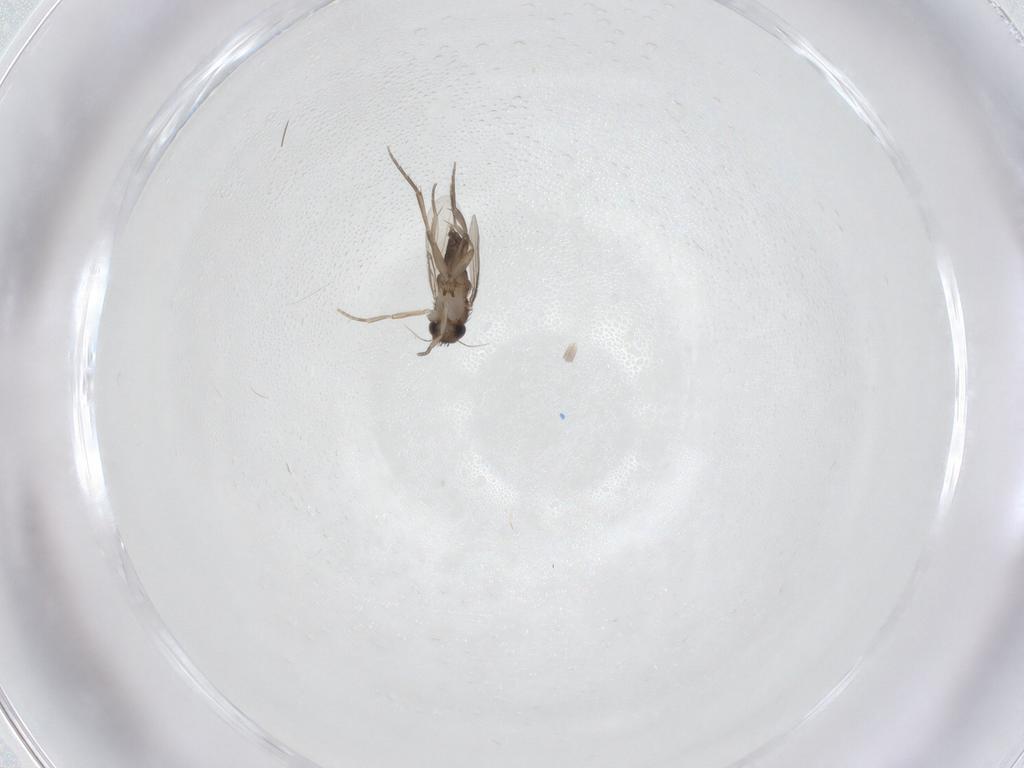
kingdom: Animalia
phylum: Arthropoda
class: Insecta
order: Diptera
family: Phoridae
